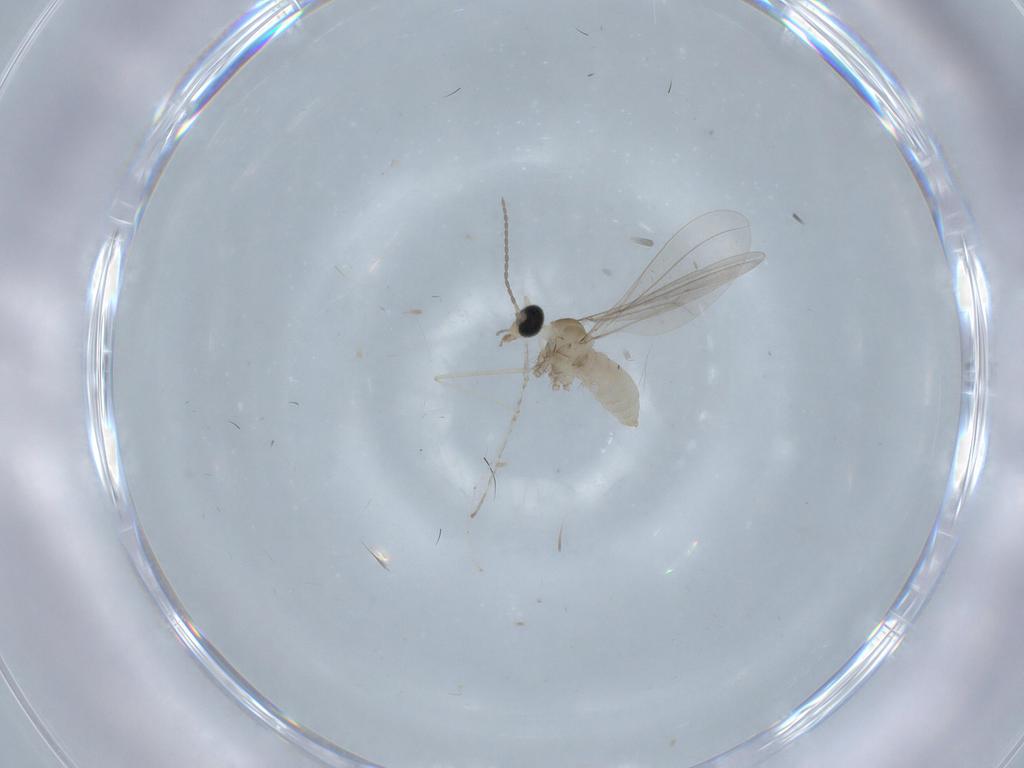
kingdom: Animalia
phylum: Arthropoda
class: Insecta
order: Diptera
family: Cecidomyiidae
